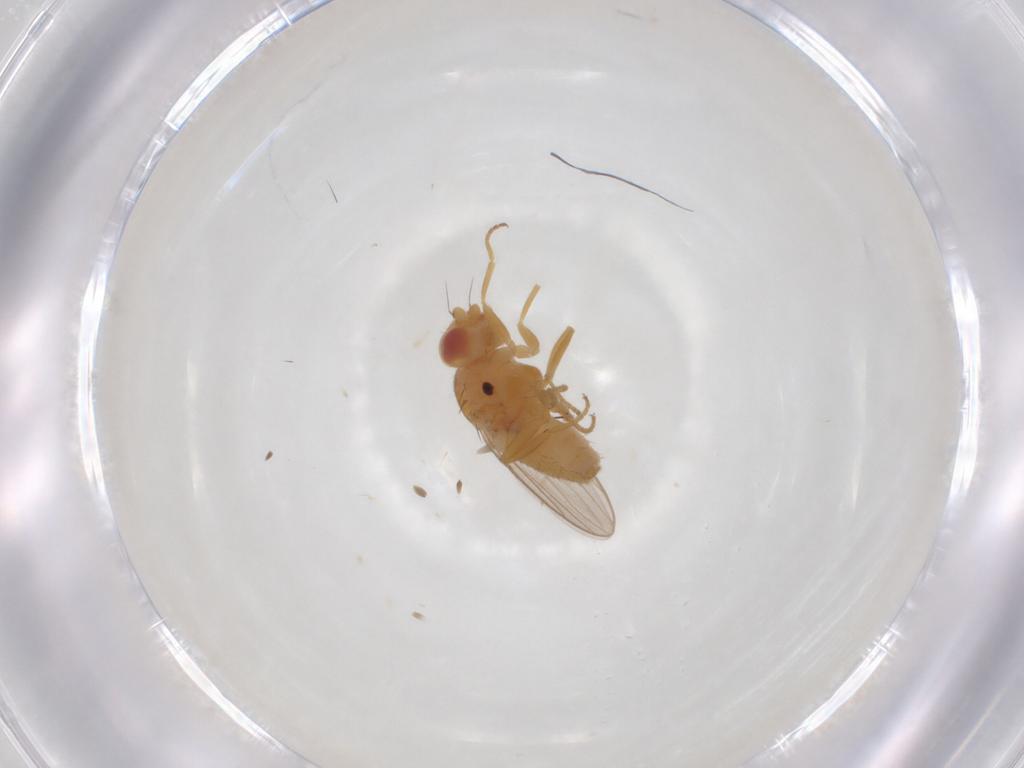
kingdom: Animalia
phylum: Arthropoda
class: Insecta
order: Diptera
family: Chloropidae
